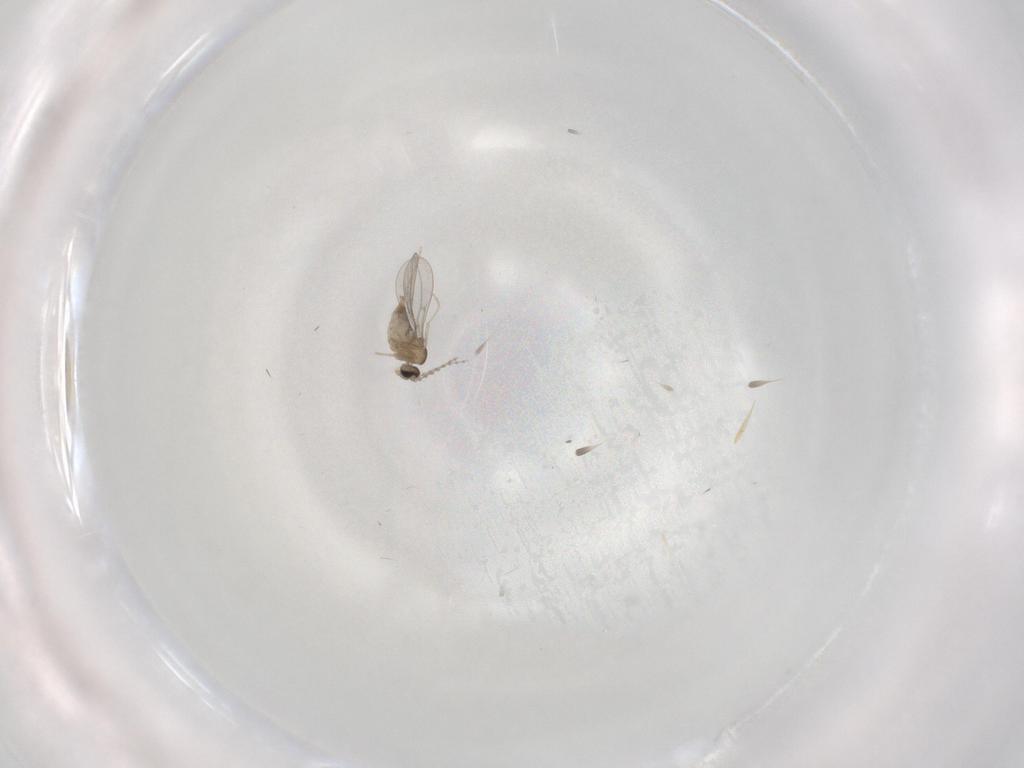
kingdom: Animalia
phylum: Arthropoda
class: Insecta
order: Diptera
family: Cecidomyiidae
